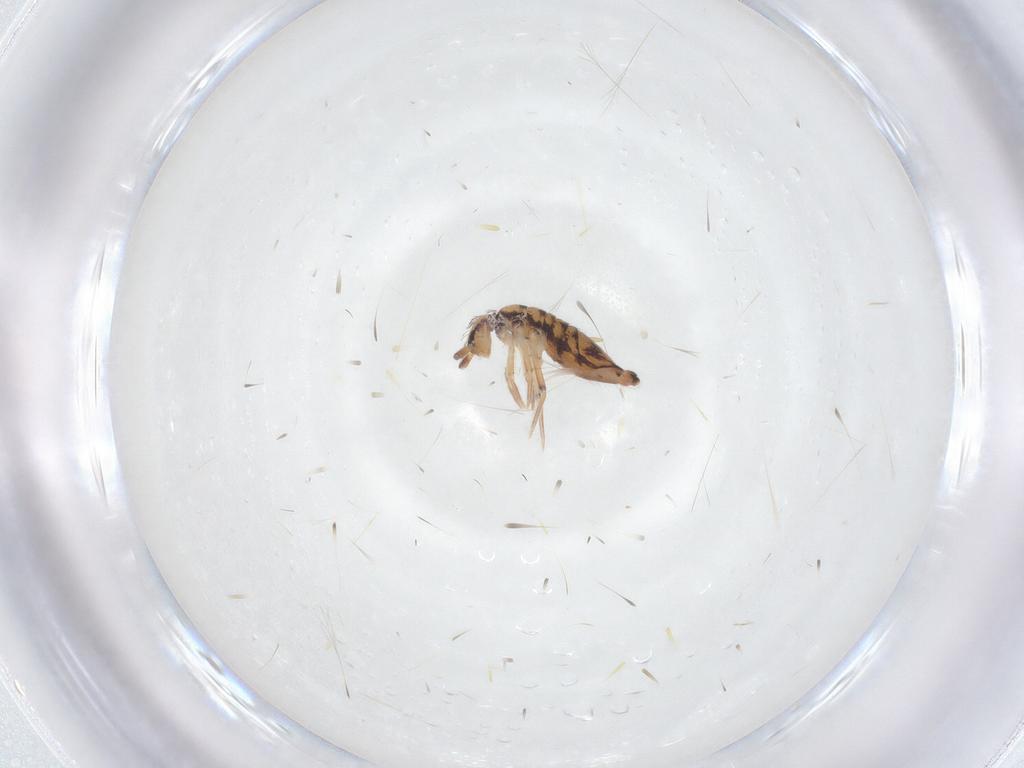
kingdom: Animalia
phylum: Arthropoda
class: Collembola
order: Entomobryomorpha
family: Entomobryidae
